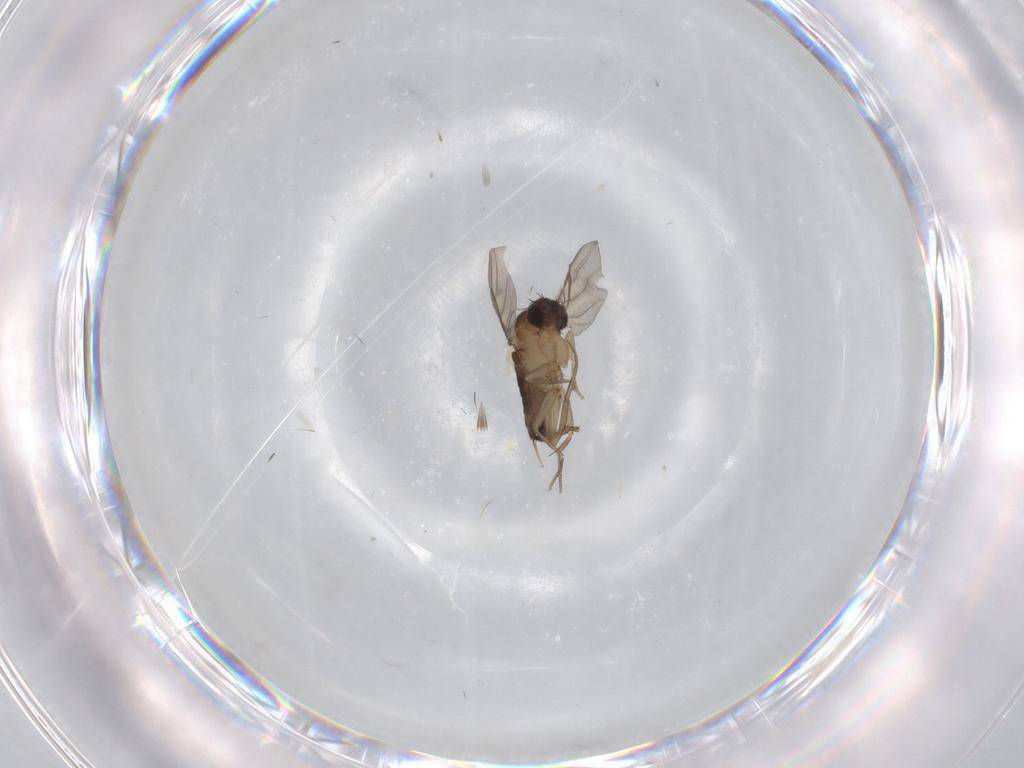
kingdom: Animalia
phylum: Arthropoda
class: Insecta
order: Diptera
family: Phoridae
